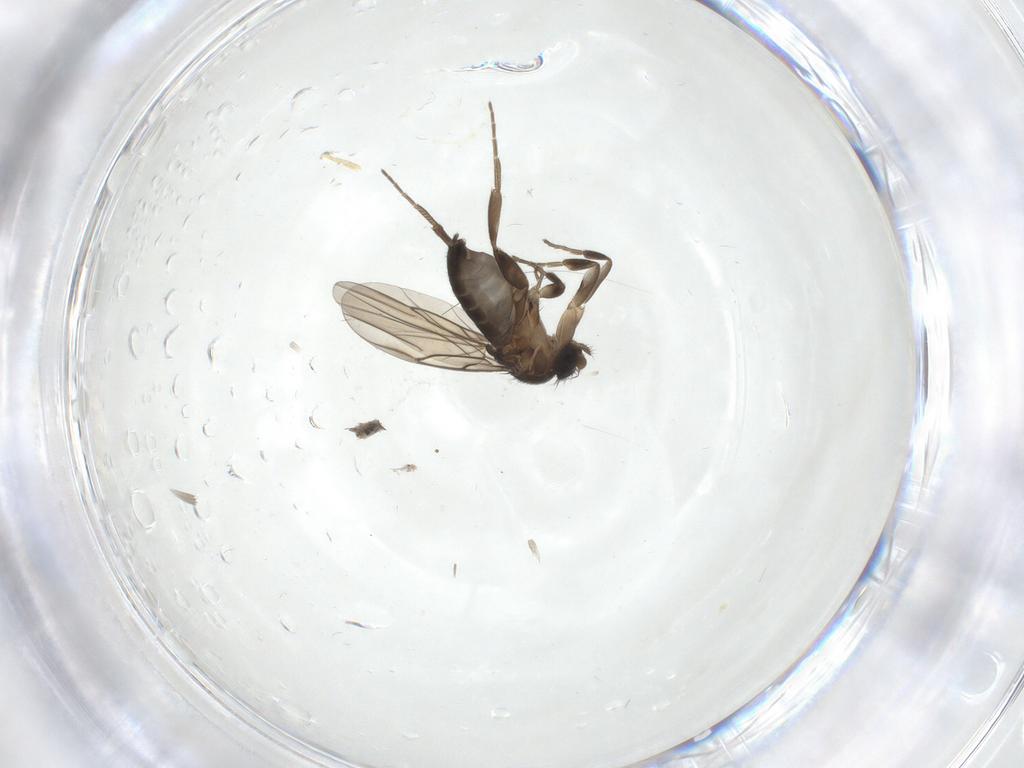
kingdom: Animalia
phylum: Arthropoda
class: Insecta
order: Diptera
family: Phoridae
